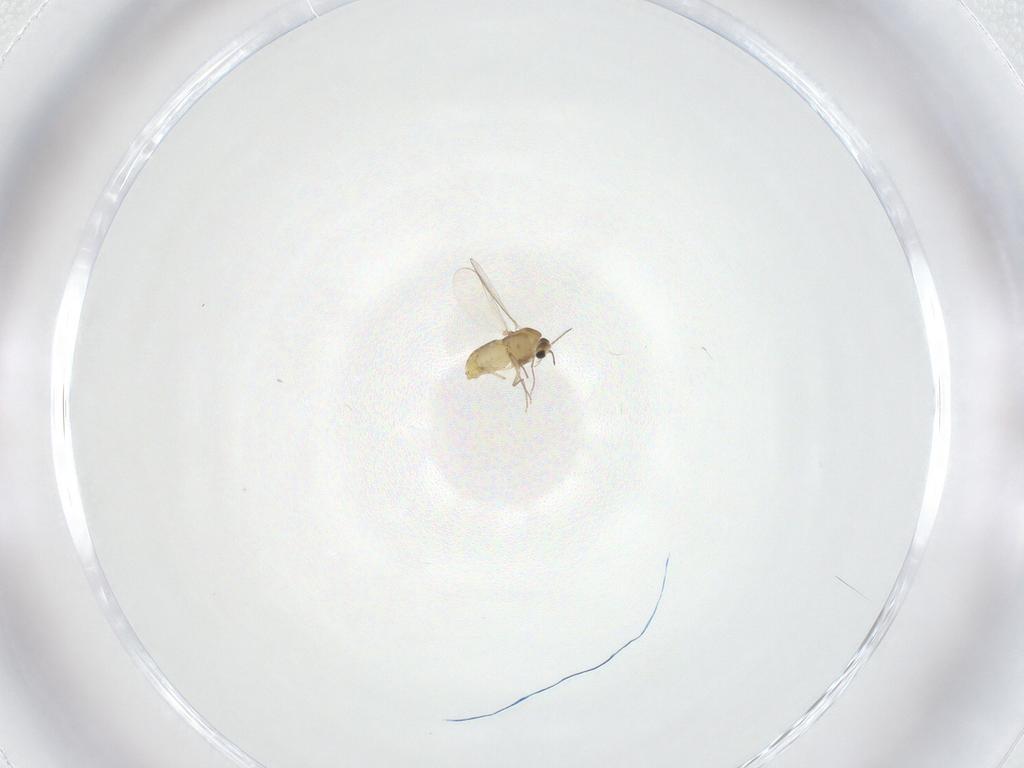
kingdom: Animalia
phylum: Arthropoda
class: Insecta
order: Diptera
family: Chironomidae
